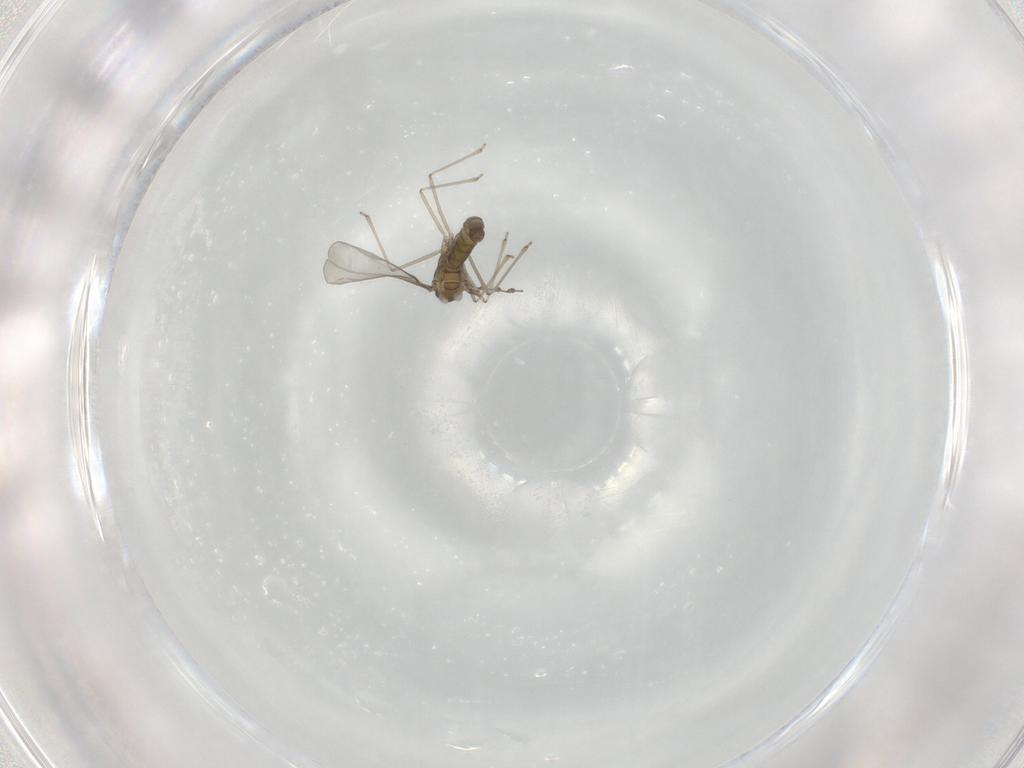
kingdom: Animalia
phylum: Arthropoda
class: Insecta
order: Diptera
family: Cecidomyiidae
